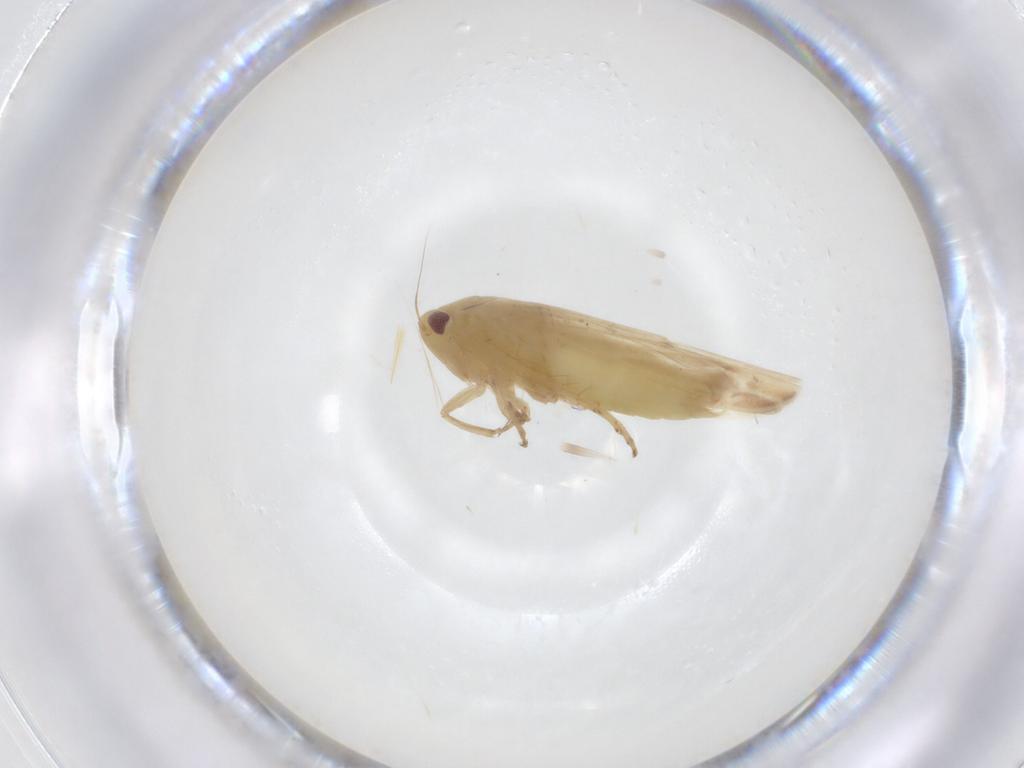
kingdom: Animalia
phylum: Arthropoda
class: Insecta
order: Hemiptera
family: Cicadellidae
